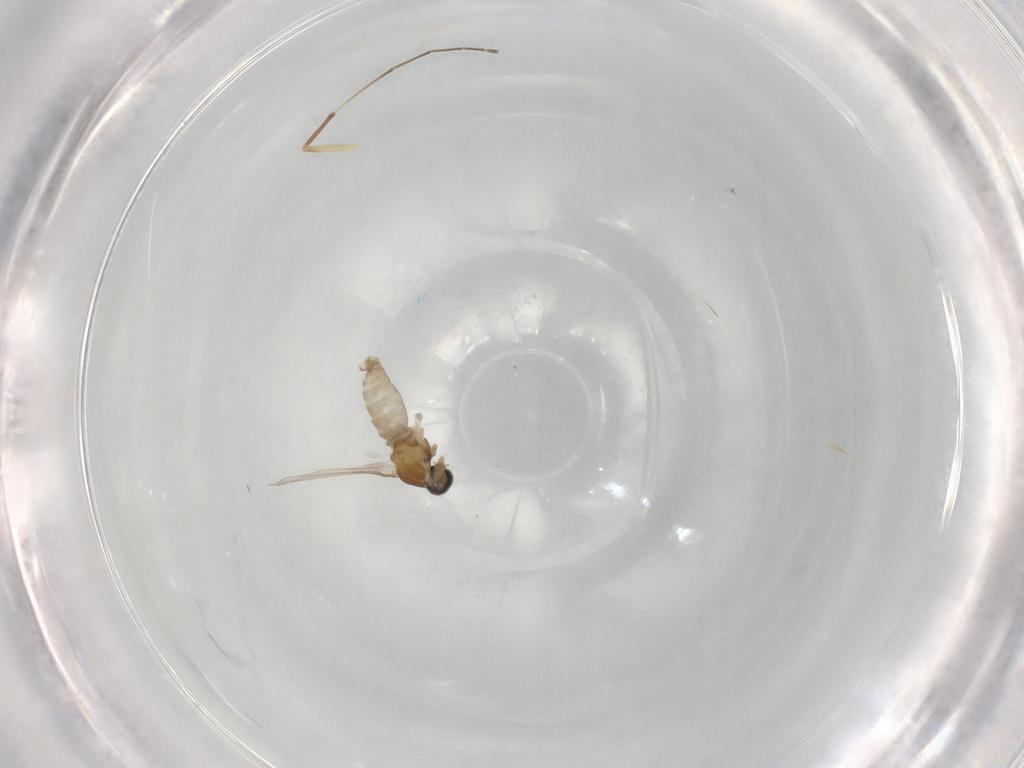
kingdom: Animalia
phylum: Arthropoda
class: Insecta
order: Diptera
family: Cecidomyiidae
